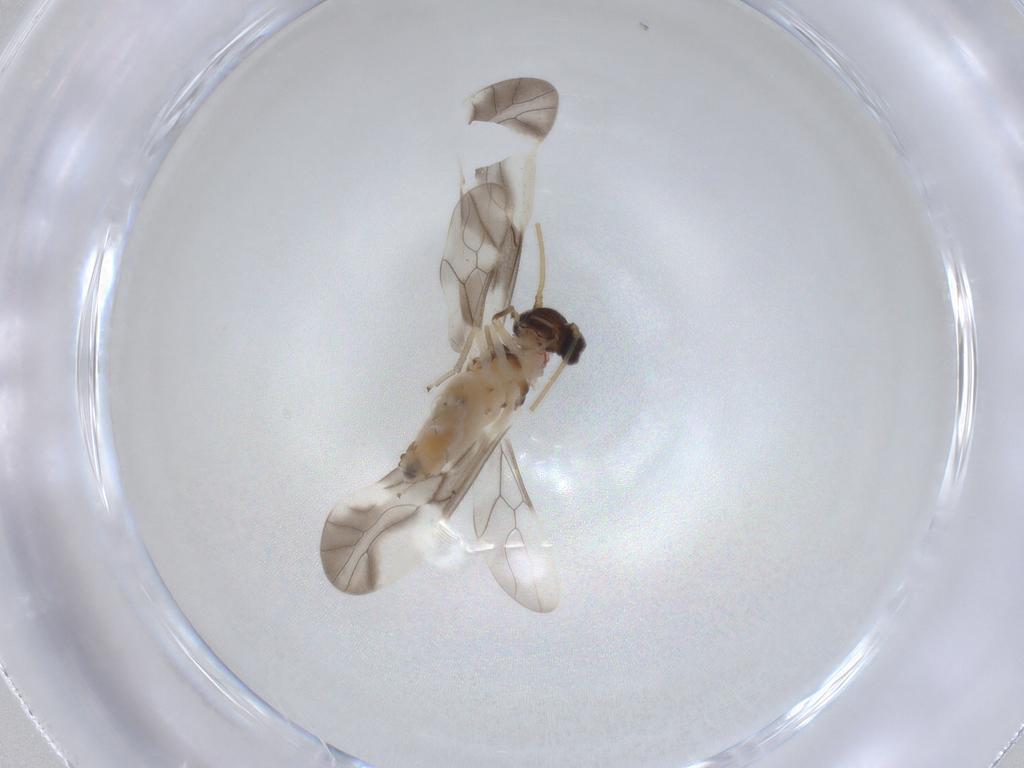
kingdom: Animalia
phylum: Arthropoda
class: Insecta
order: Psocodea
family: Caeciliusidae
